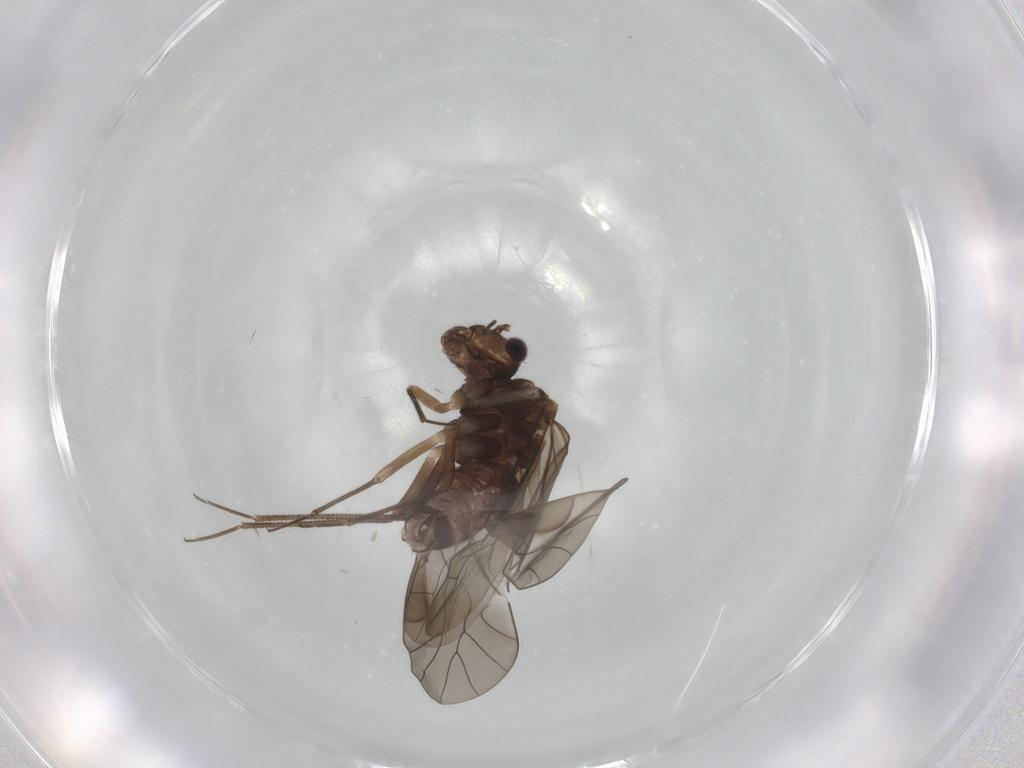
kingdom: Animalia
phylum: Arthropoda
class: Insecta
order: Psocodea
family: Lachesillidae
